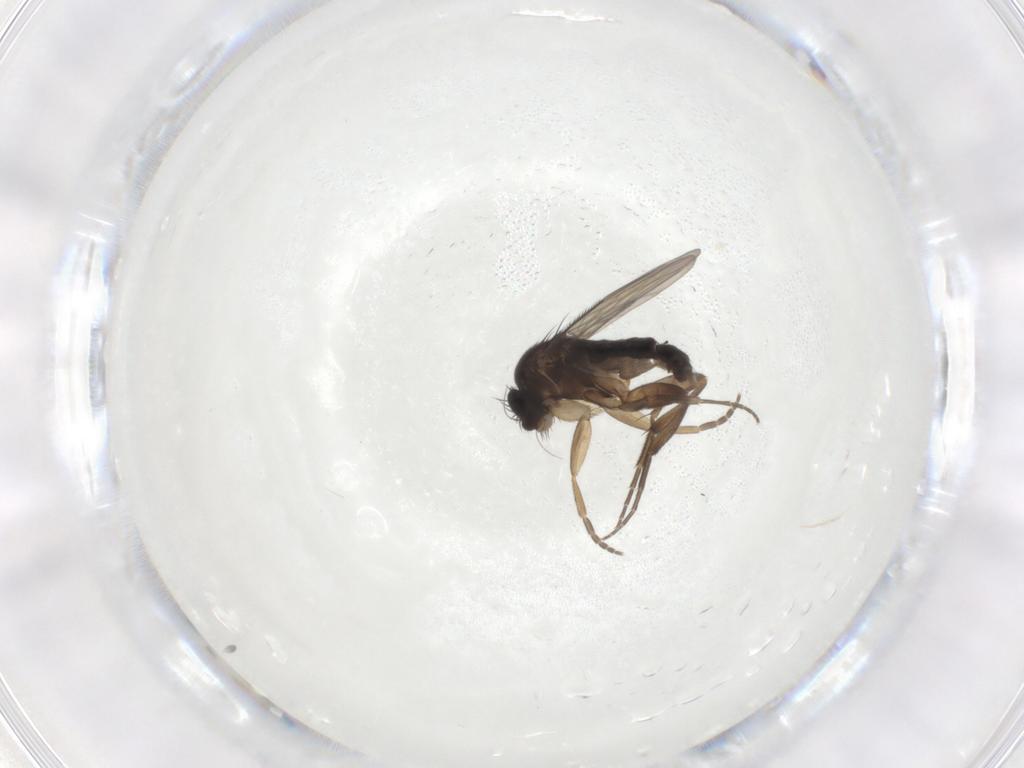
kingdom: Animalia
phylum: Arthropoda
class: Insecta
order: Diptera
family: Phoridae
